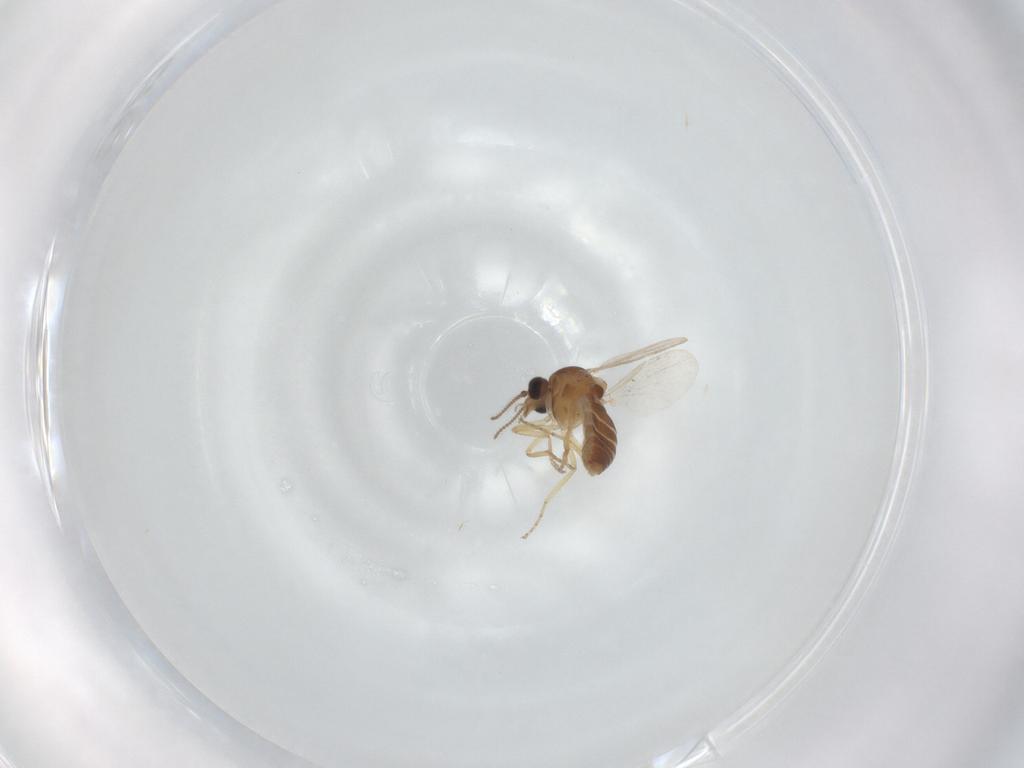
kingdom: Animalia
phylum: Arthropoda
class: Insecta
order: Diptera
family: Ceratopogonidae
